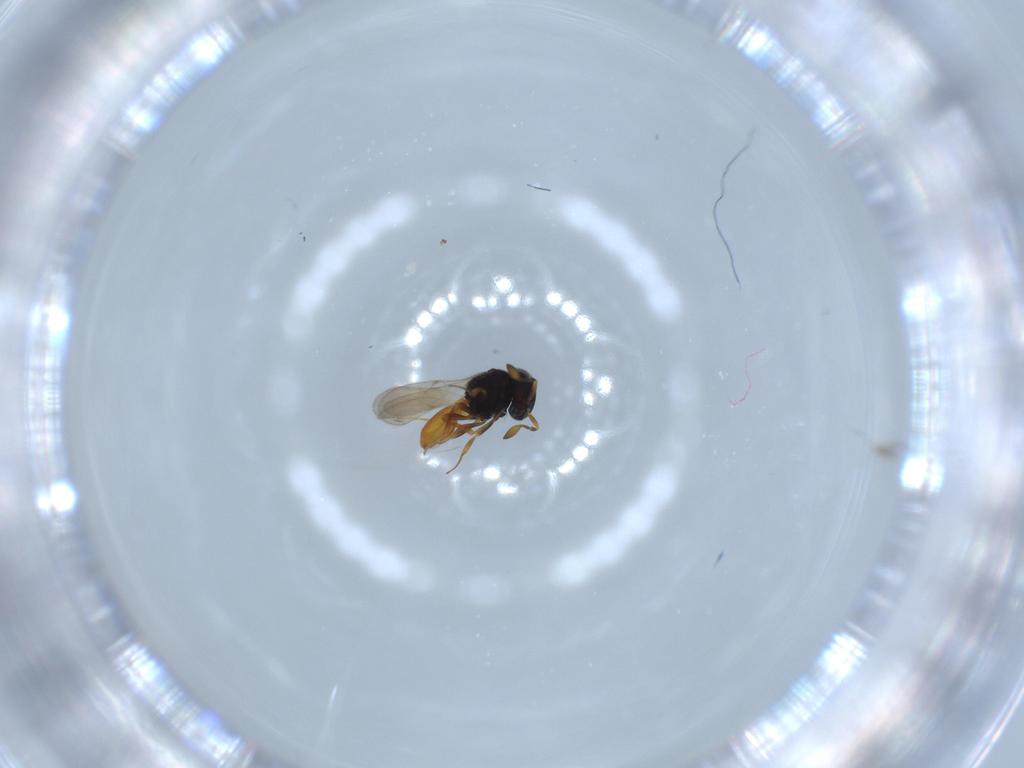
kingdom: Animalia
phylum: Arthropoda
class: Insecta
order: Hymenoptera
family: Scelionidae
